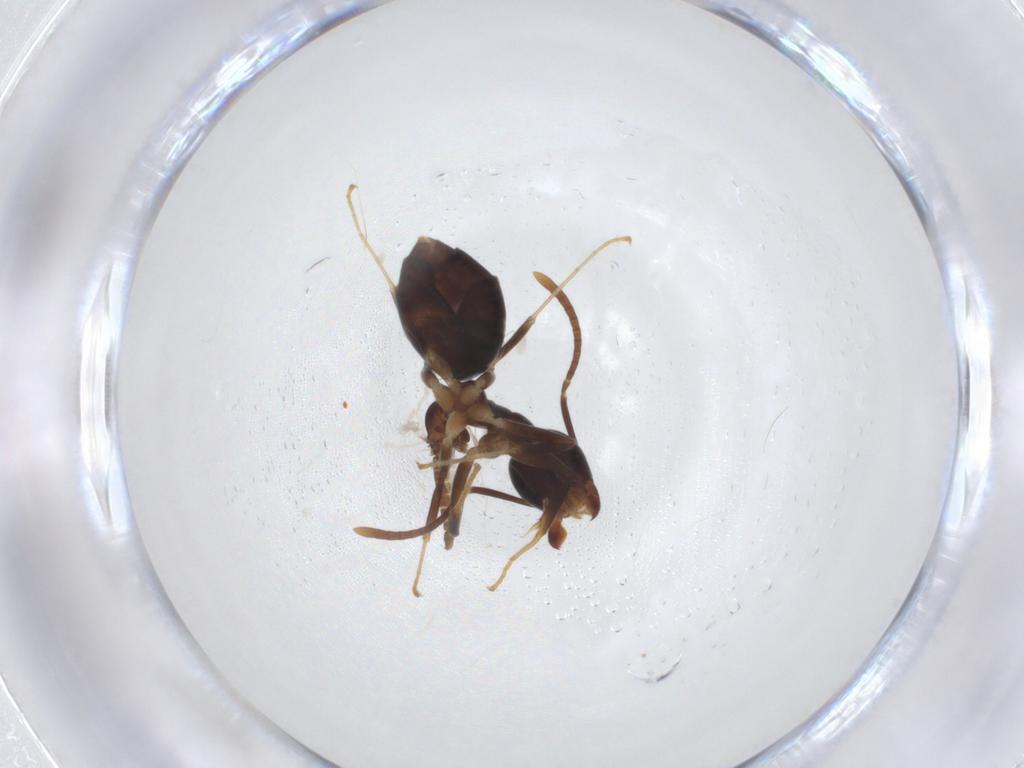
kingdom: Animalia
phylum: Arthropoda
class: Insecta
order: Hymenoptera
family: Formicidae
